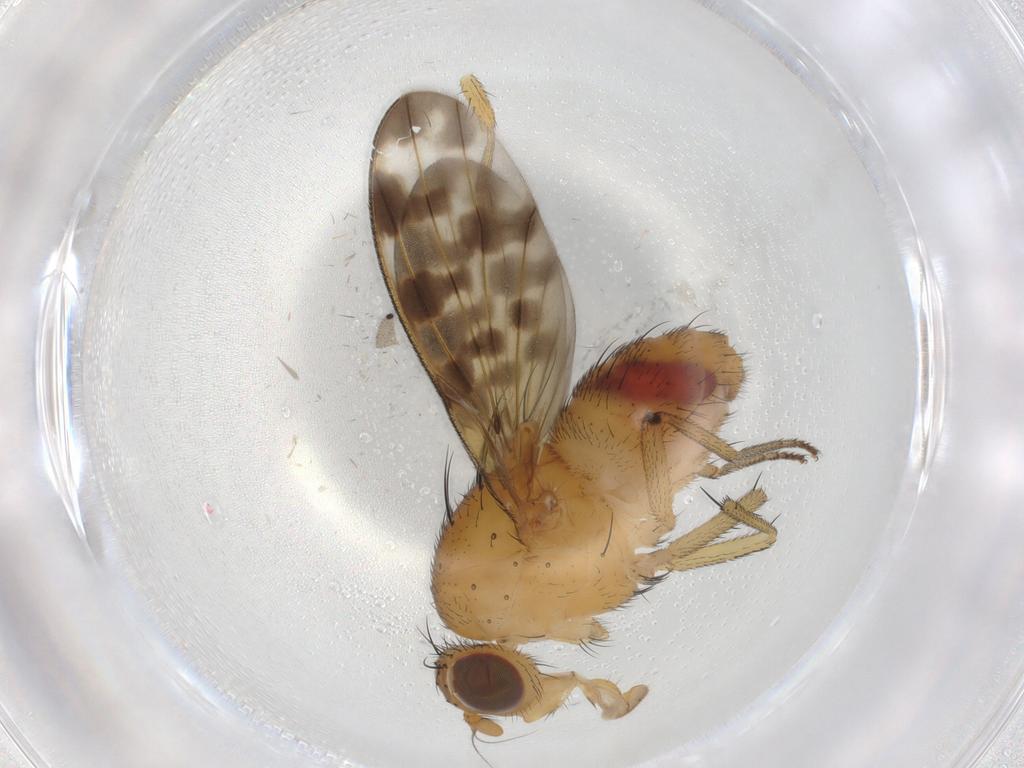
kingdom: Animalia
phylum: Arthropoda
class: Insecta
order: Diptera
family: Limoniidae
